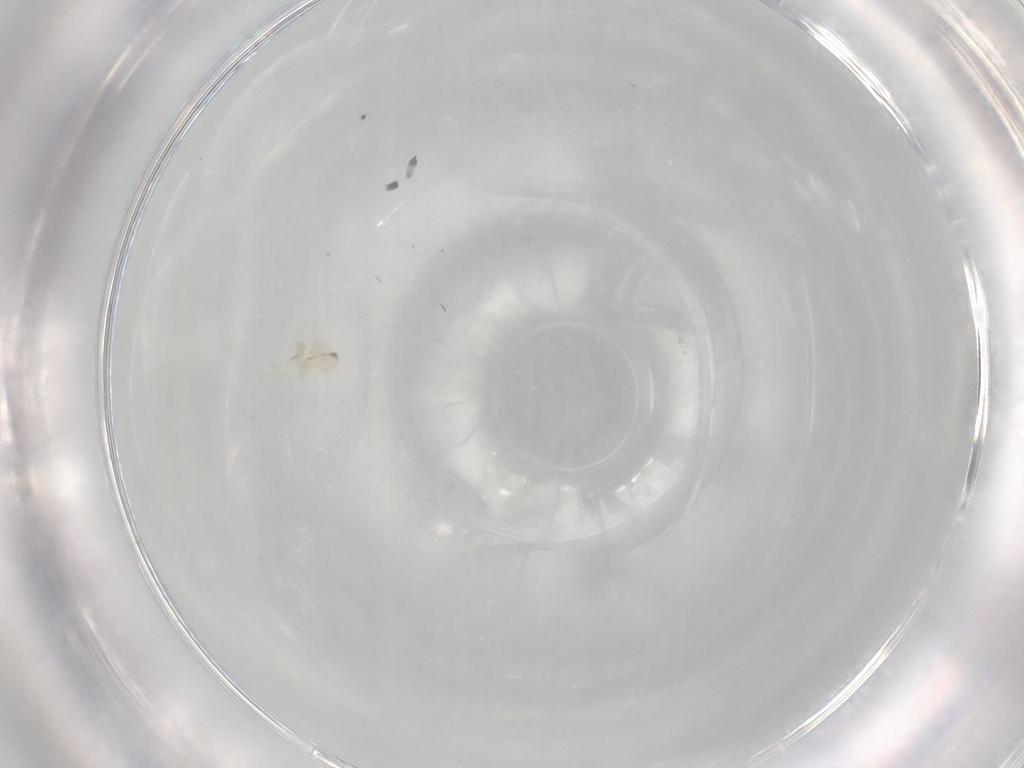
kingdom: Animalia
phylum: Arthropoda
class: Insecta
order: Hemiptera
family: Aleyrodidae
